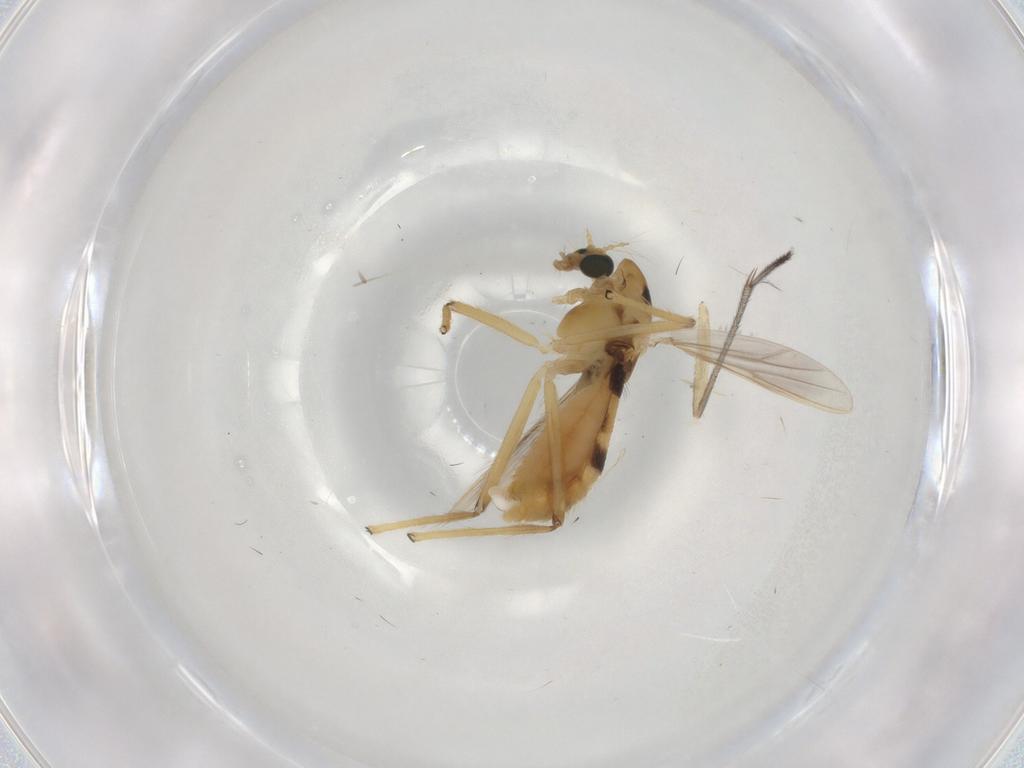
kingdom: Animalia
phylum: Arthropoda
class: Insecta
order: Diptera
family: Chironomidae
